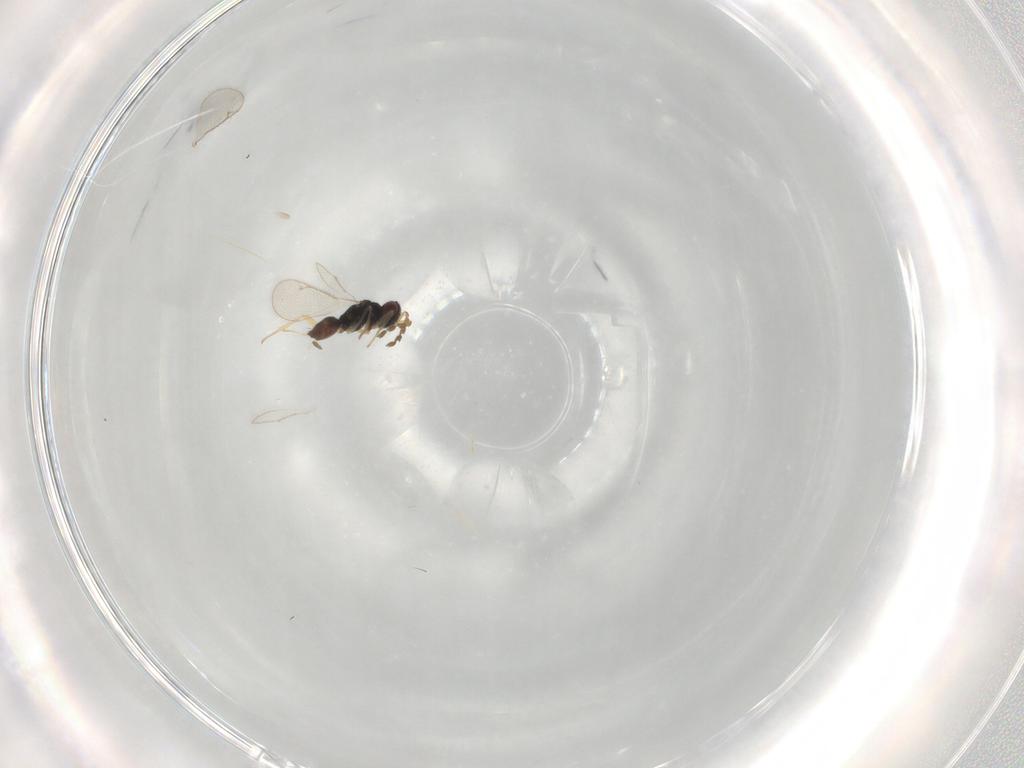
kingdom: Animalia
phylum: Arthropoda
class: Insecta
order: Hymenoptera
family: Eulophidae
